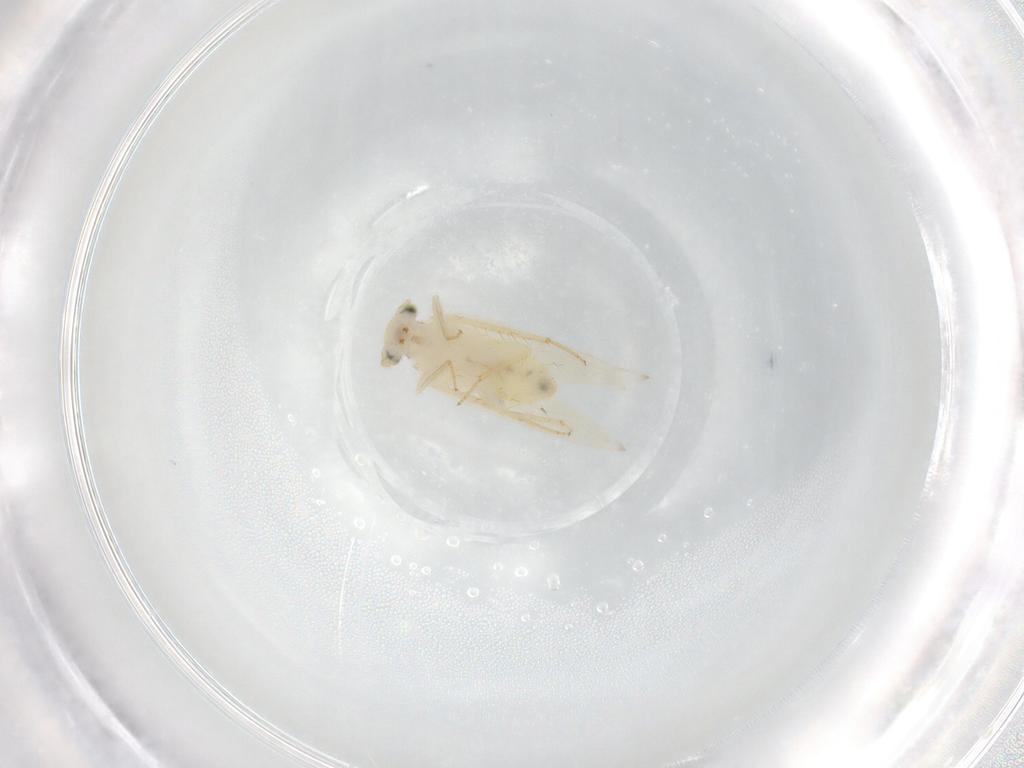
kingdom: Animalia
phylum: Arthropoda
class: Insecta
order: Psocodea
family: Lepidopsocidae
